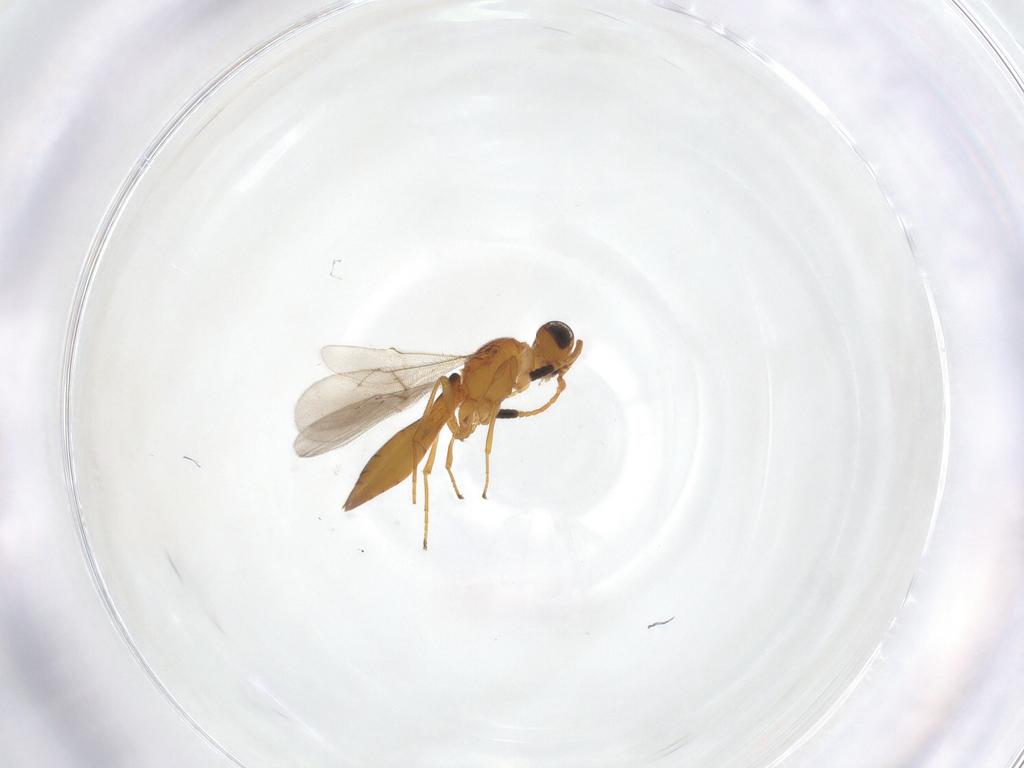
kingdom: Animalia
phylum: Arthropoda
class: Insecta
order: Hymenoptera
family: Scelionidae
